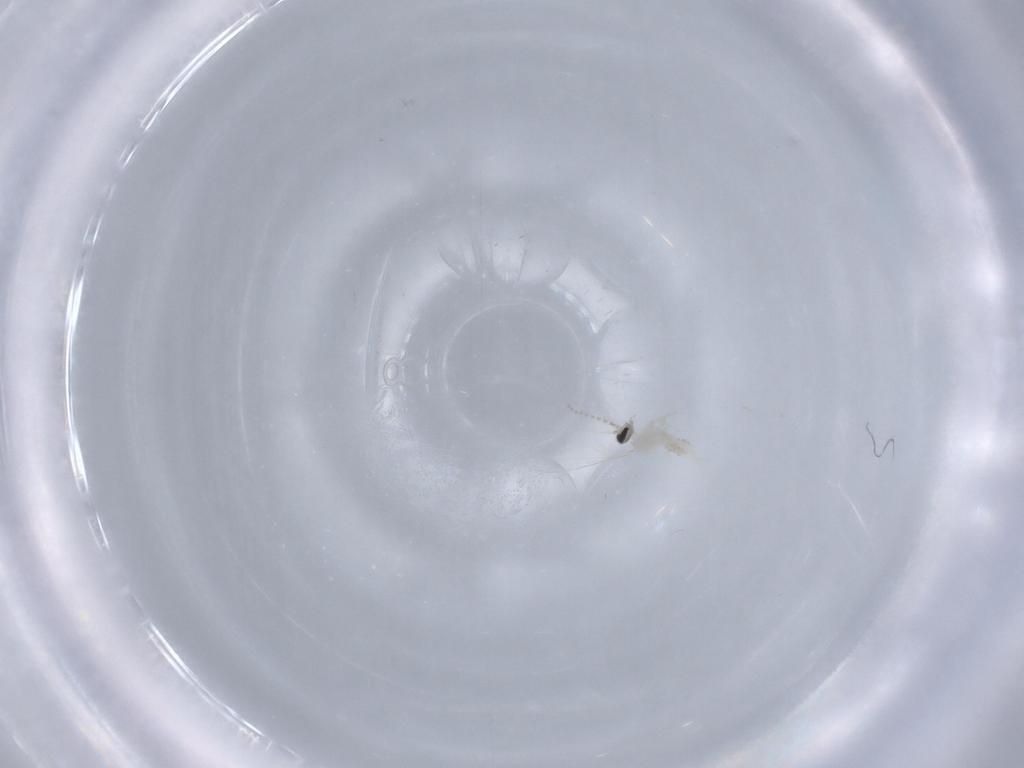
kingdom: Animalia
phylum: Arthropoda
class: Insecta
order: Diptera
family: Cecidomyiidae
